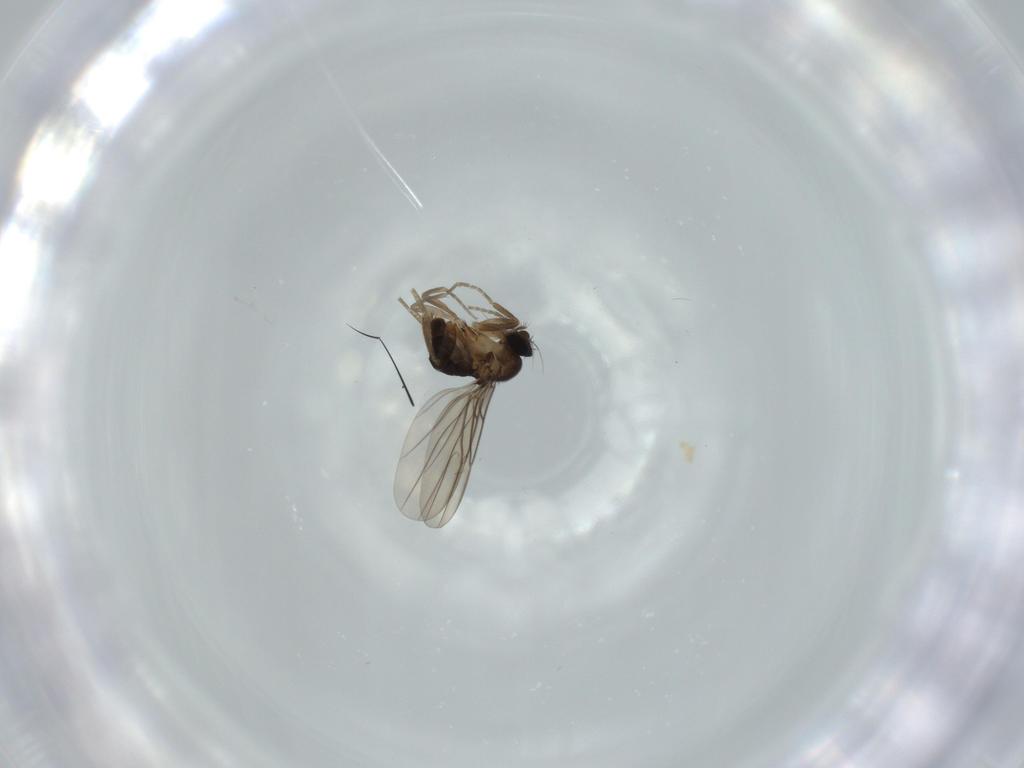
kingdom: Animalia
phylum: Arthropoda
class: Insecta
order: Diptera
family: Phoridae
